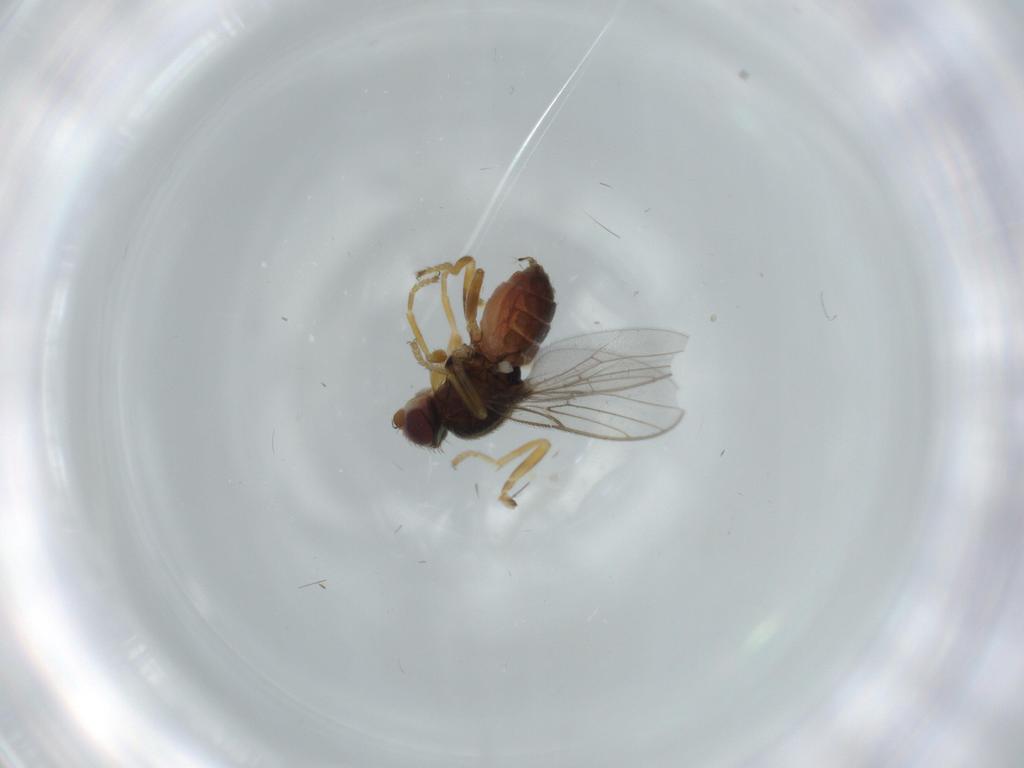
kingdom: Animalia
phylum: Arthropoda
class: Insecta
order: Diptera
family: Chloropidae
